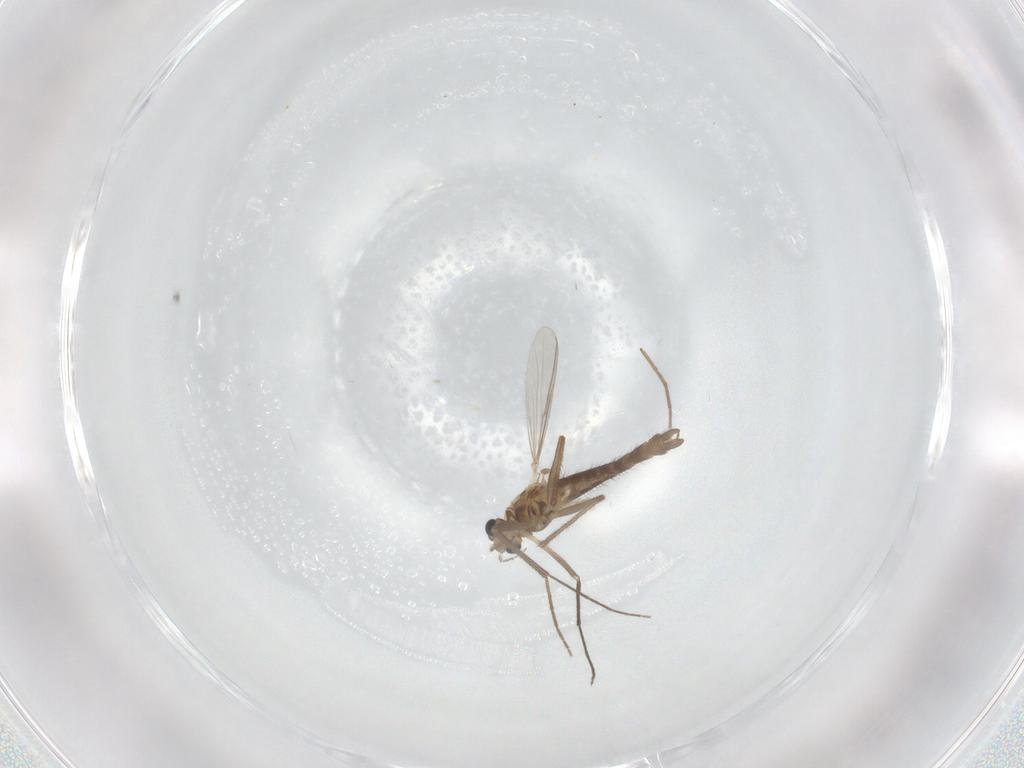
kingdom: Animalia
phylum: Arthropoda
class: Insecta
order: Diptera
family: Chironomidae
